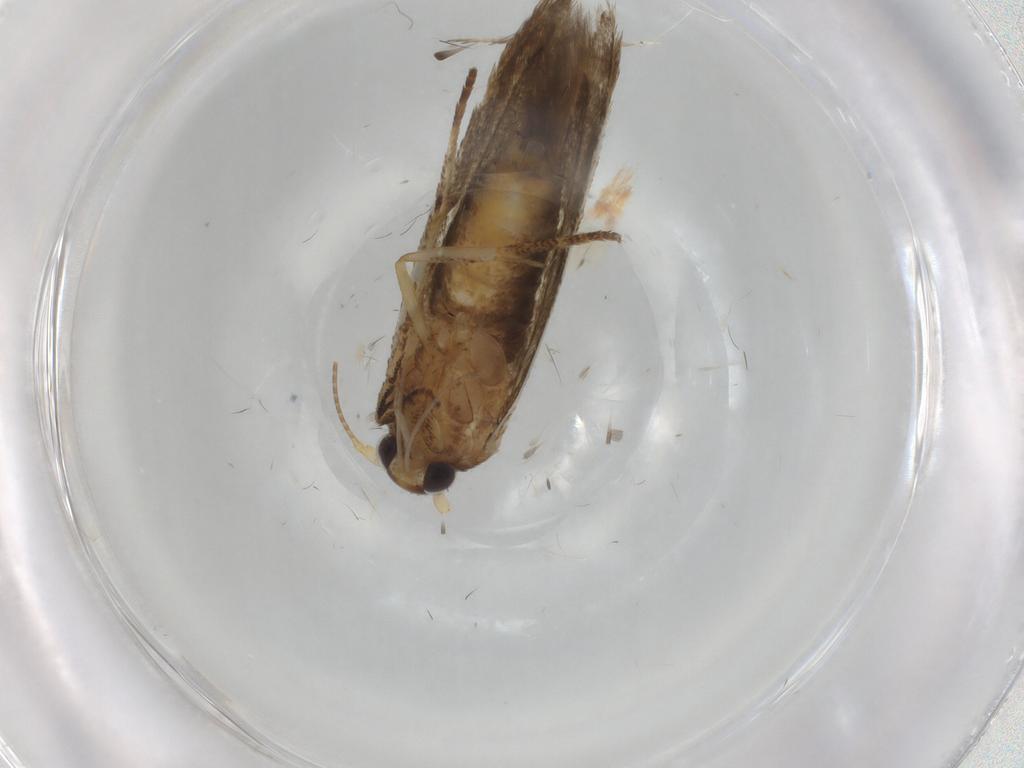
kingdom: Animalia
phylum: Arthropoda
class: Insecta
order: Lepidoptera
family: Blastobasidae
